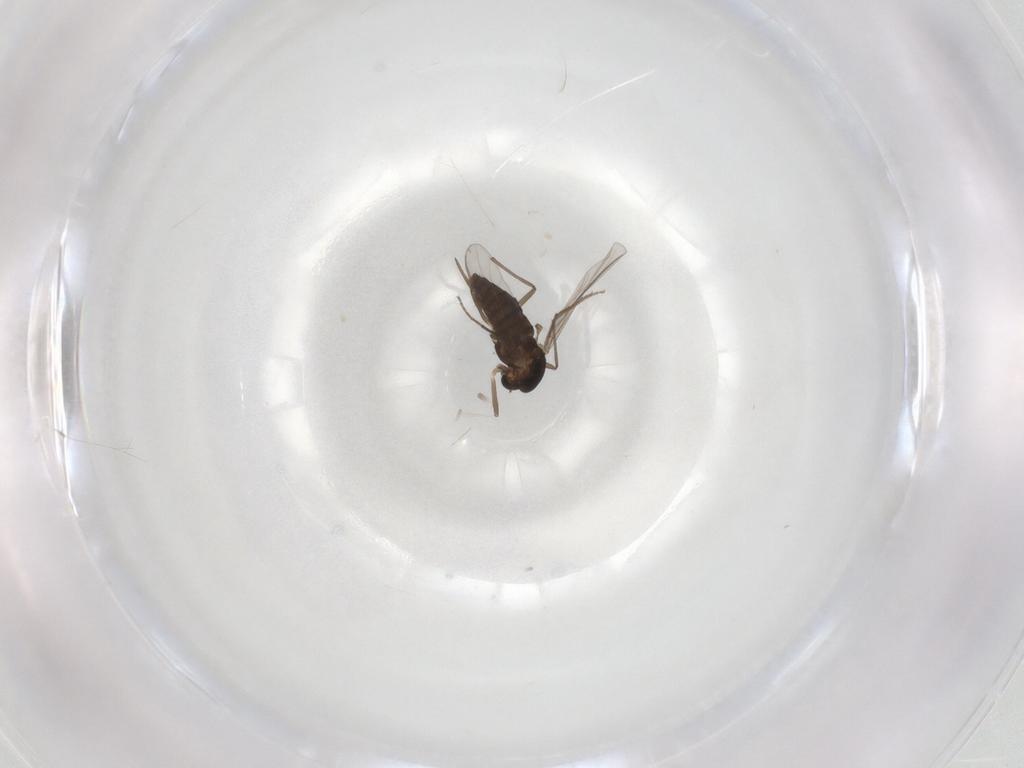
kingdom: Animalia
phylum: Arthropoda
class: Insecta
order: Diptera
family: Chironomidae
